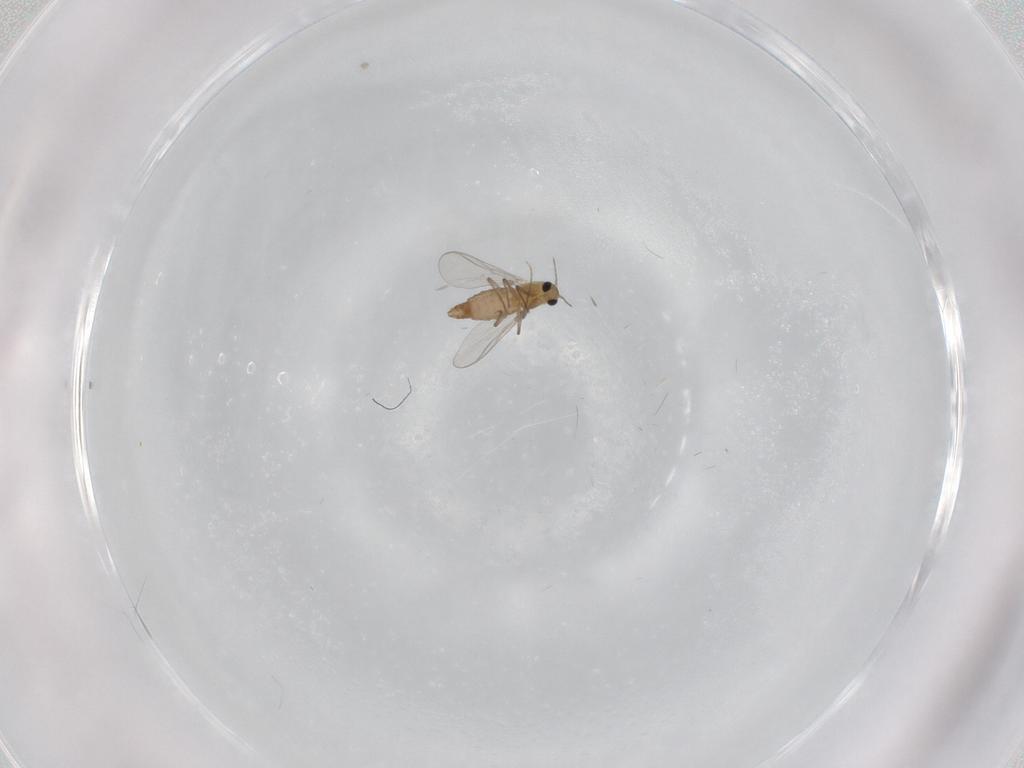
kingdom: Animalia
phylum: Arthropoda
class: Insecta
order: Diptera
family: Chironomidae
